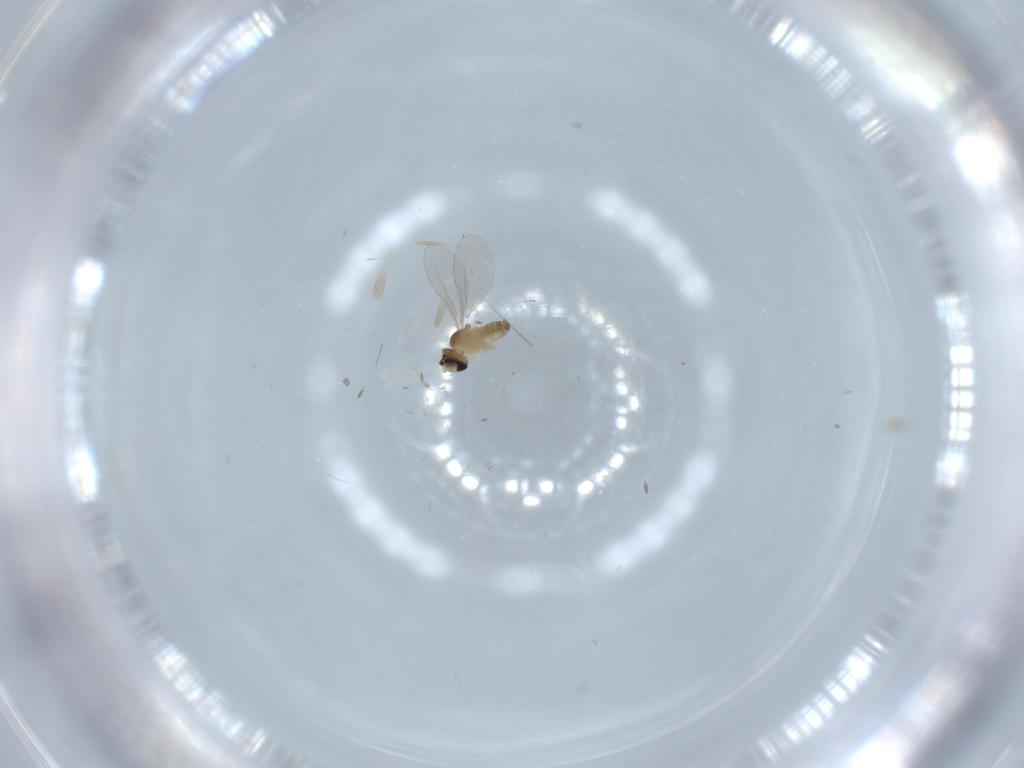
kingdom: Animalia
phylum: Arthropoda
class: Insecta
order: Diptera
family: Cecidomyiidae
